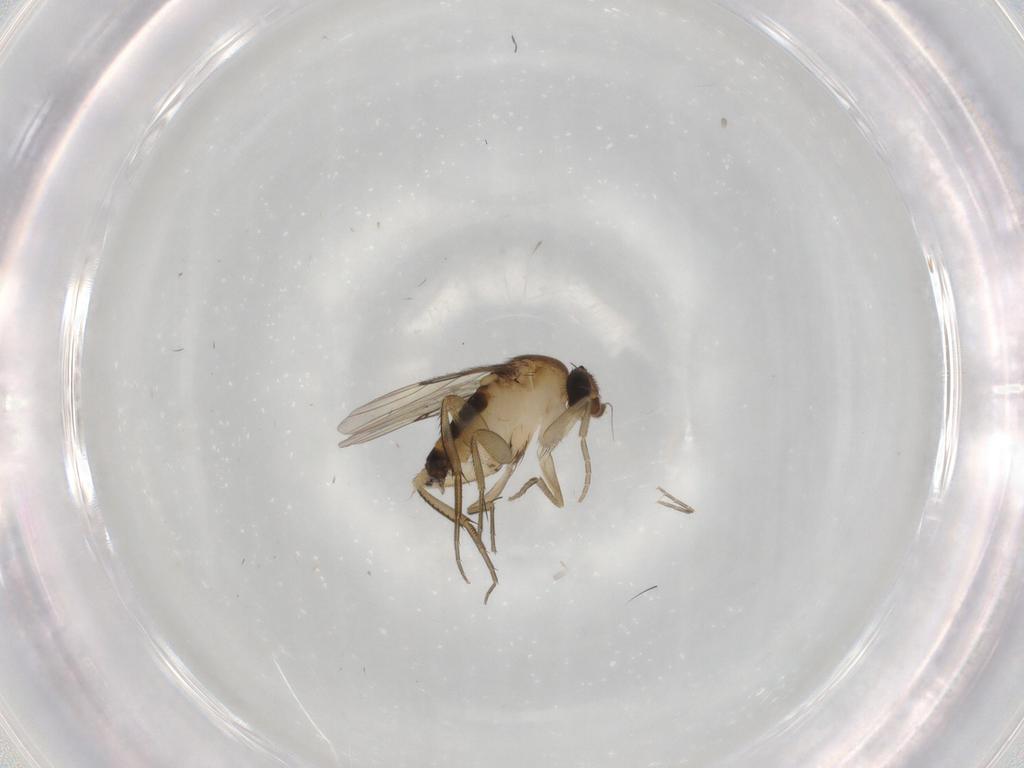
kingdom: Animalia
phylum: Arthropoda
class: Insecta
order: Diptera
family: Phoridae
